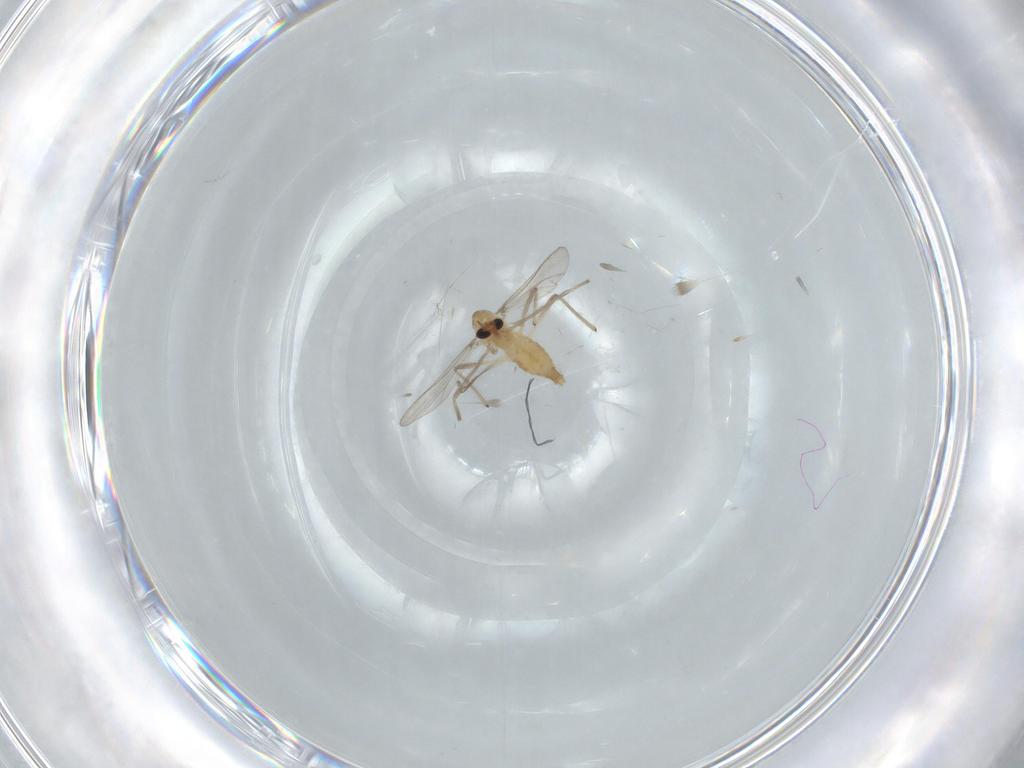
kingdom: Animalia
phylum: Arthropoda
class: Insecta
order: Diptera
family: Chironomidae
